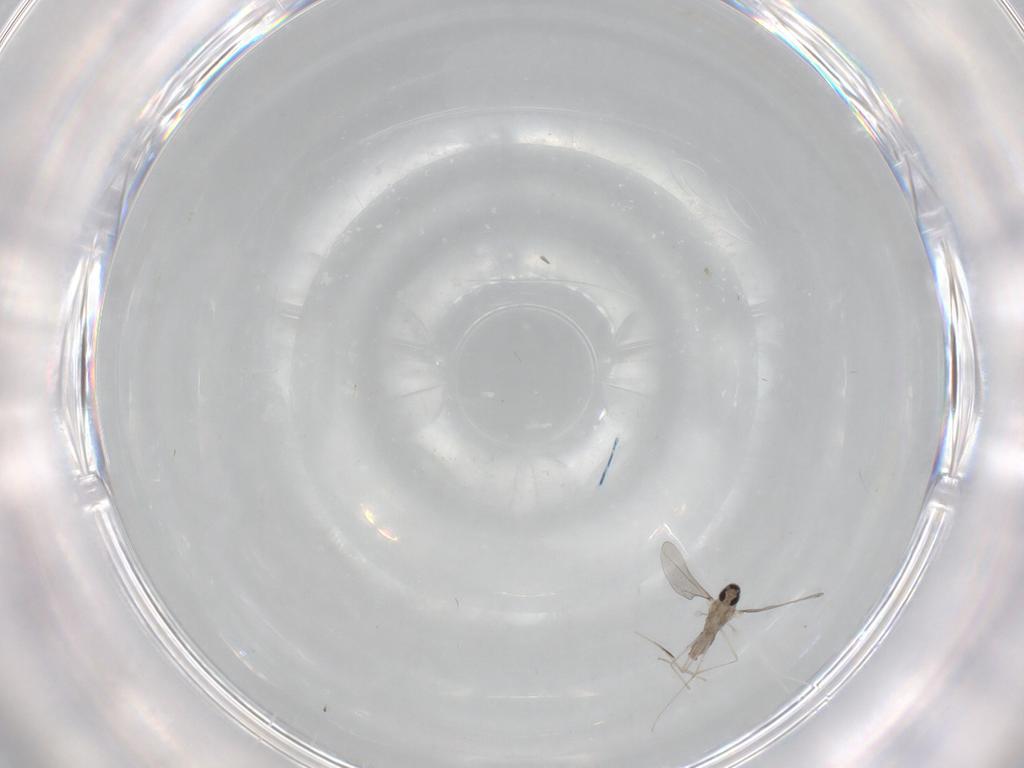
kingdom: Animalia
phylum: Arthropoda
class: Insecta
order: Diptera
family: Cecidomyiidae
